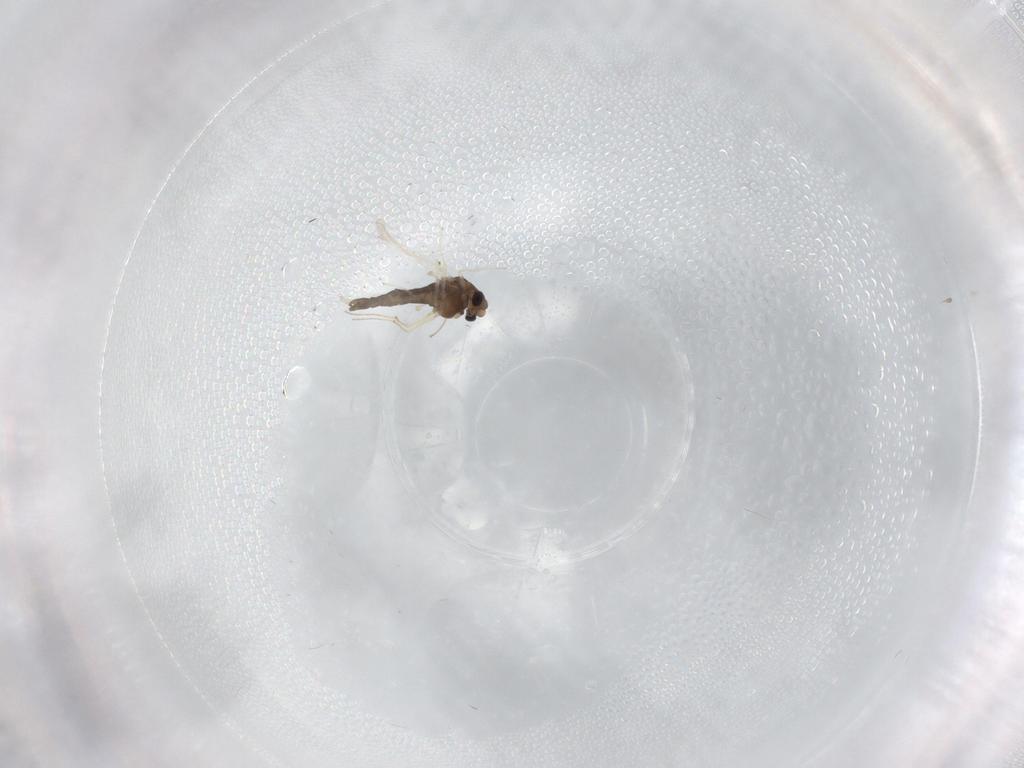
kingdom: Animalia
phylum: Arthropoda
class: Insecta
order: Diptera
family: Chironomidae
